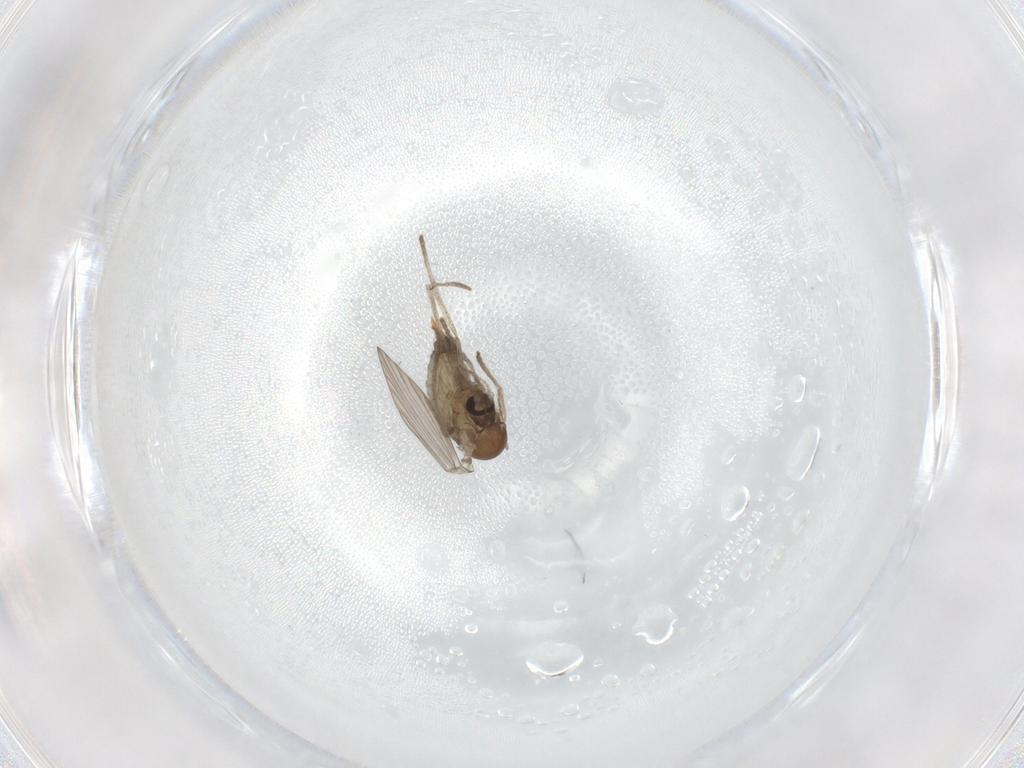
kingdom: Animalia
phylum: Arthropoda
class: Insecta
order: Diptera
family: Psychodidae
